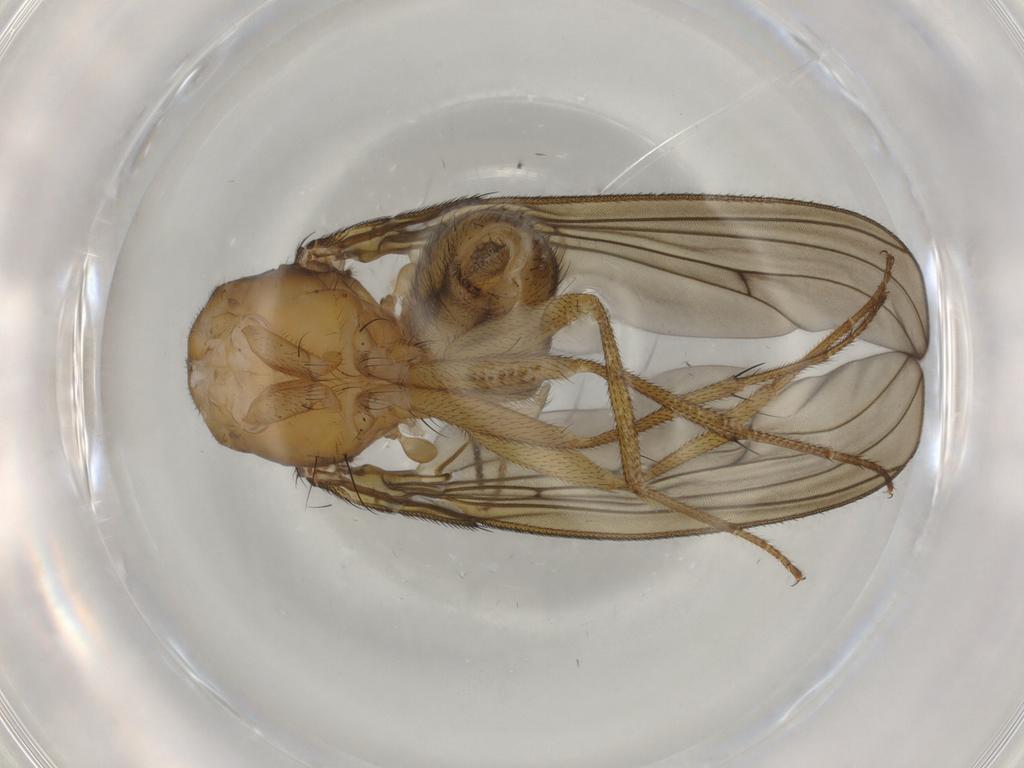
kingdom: Animalia
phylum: Arthropoda
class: Insecta
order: Diptera
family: Drosophilidae
